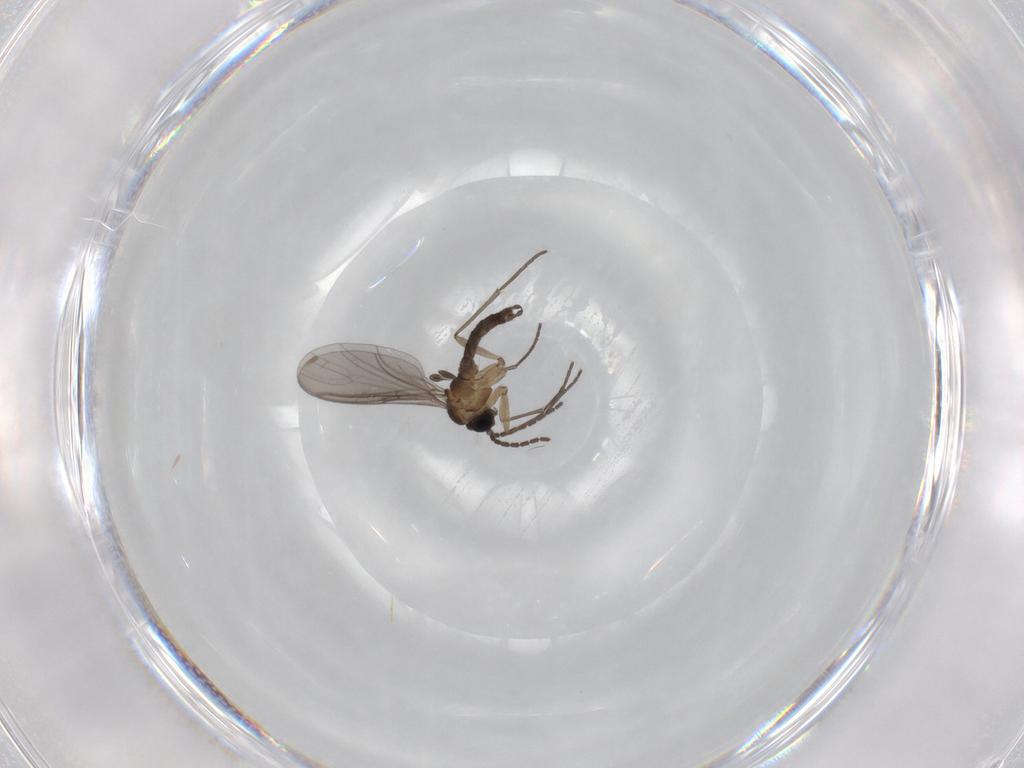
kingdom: Animalia
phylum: Arthropoda
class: Insecta
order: Diptera
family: Sciaridae
